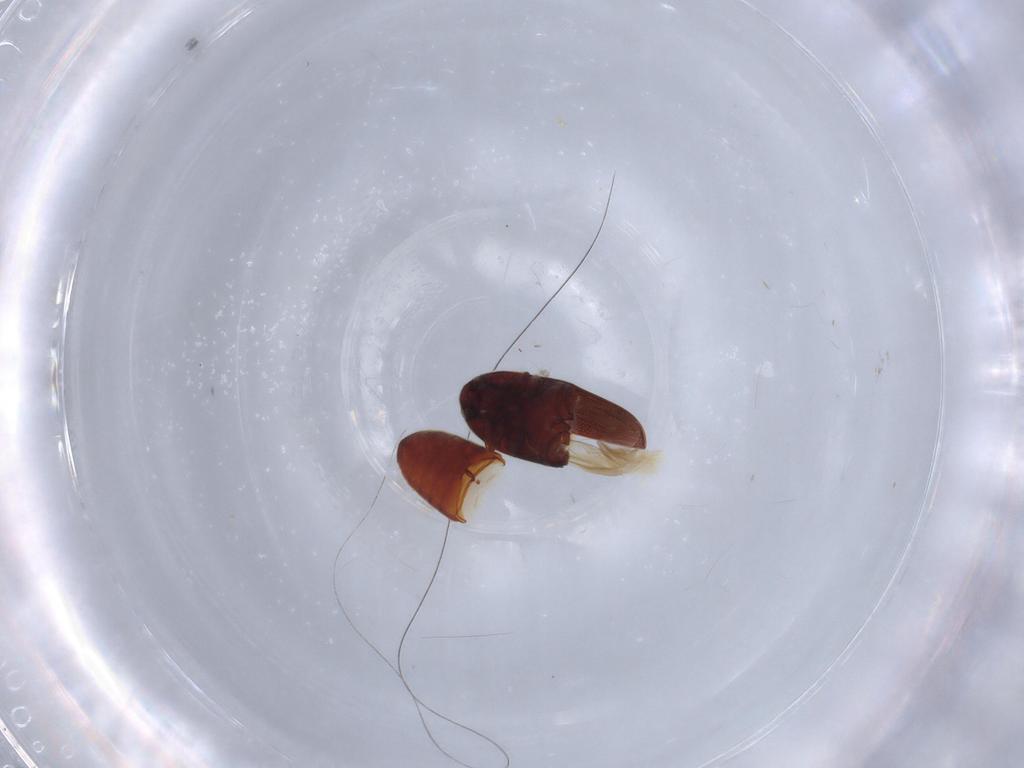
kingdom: Animalia
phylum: Arthropoda
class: Insecta
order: Coleoptera
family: Throscidae
